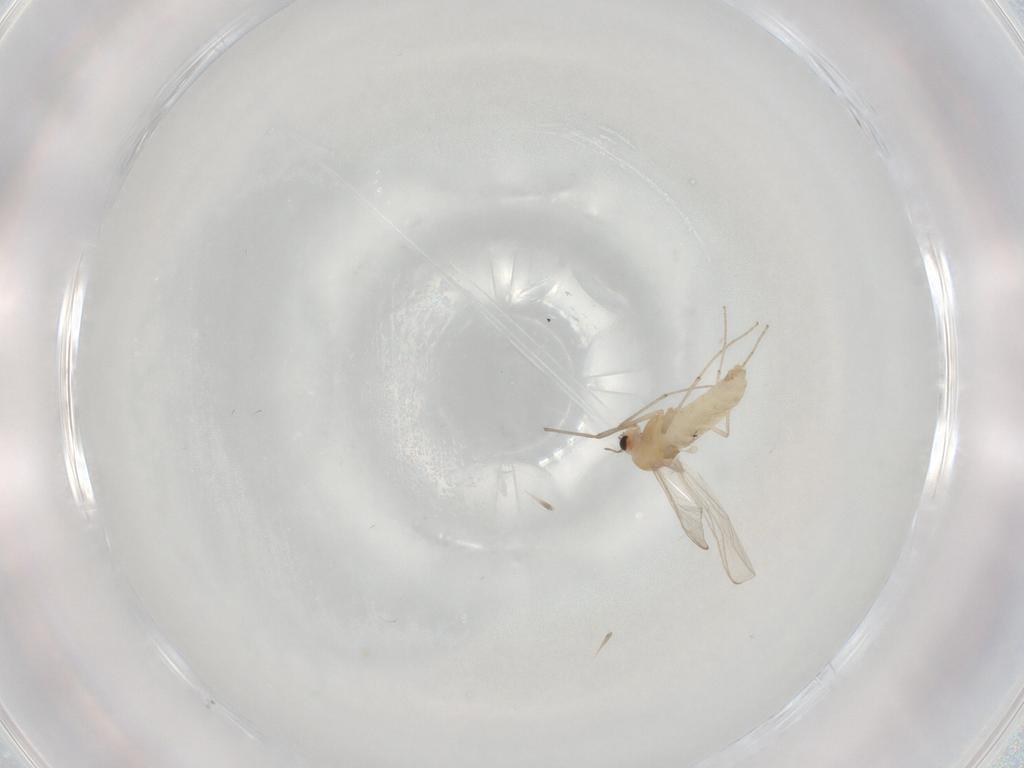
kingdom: Animalia
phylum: Arthropoda
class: Insecta
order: Diptera
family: Chironomidae
